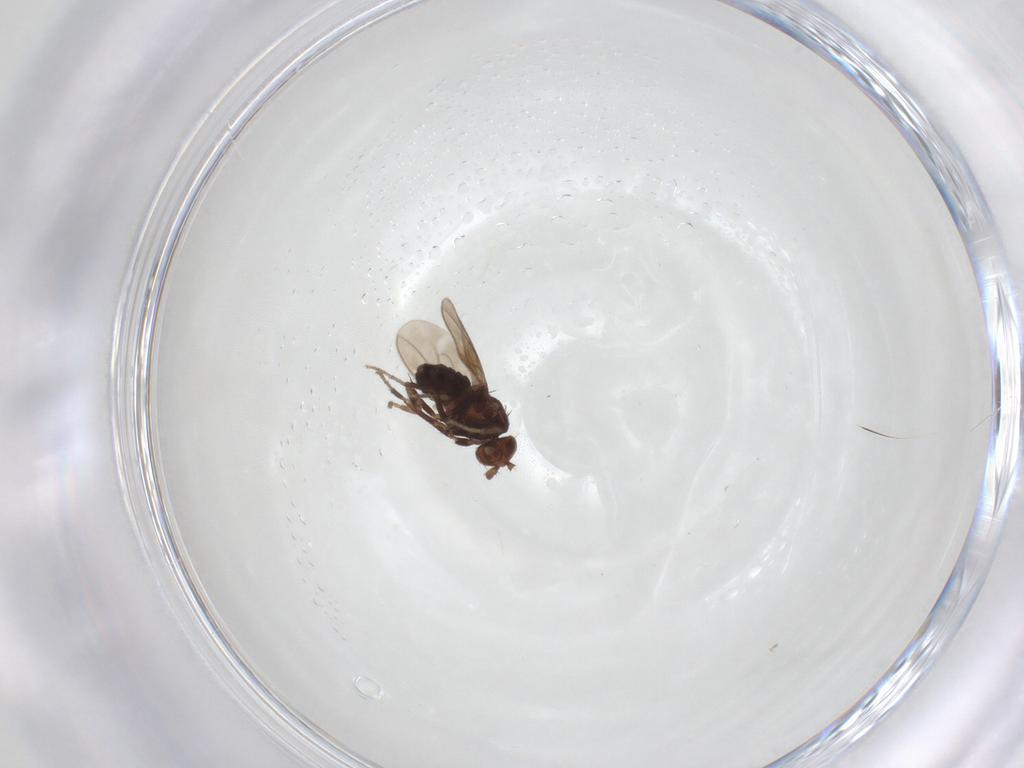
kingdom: Animalia
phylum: Arthropoda
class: Insecta
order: Diptera
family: Sphaeroceridae
